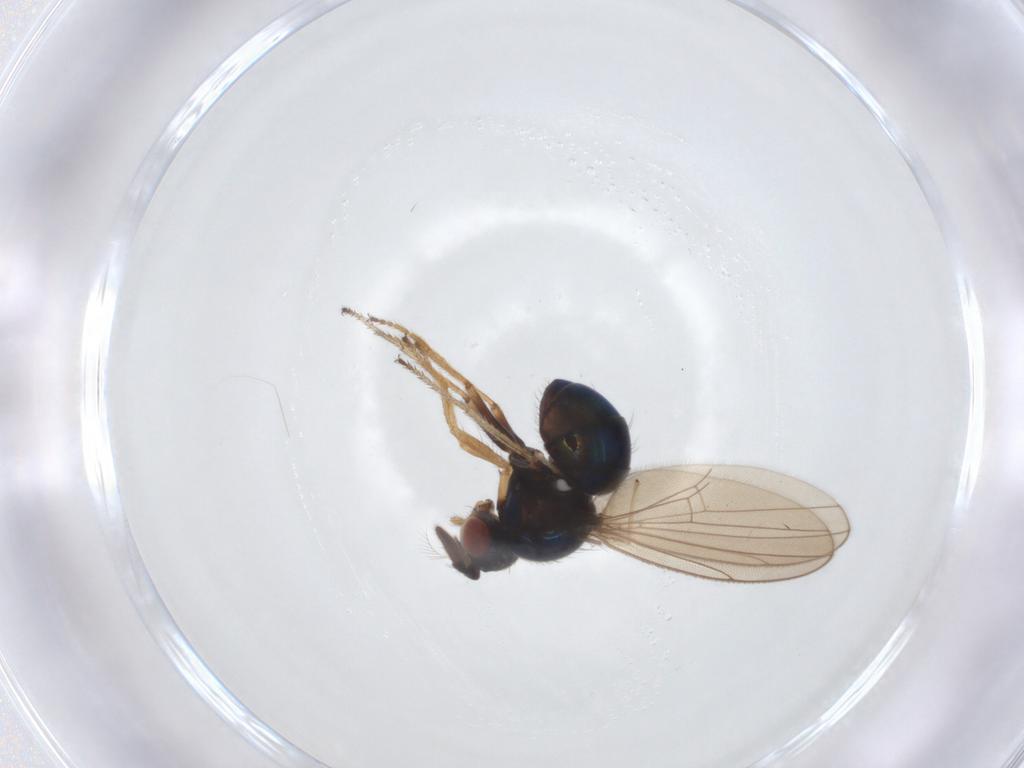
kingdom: Animalia
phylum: Arthropoda
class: Insecta
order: Diptera
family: Ephydridae
